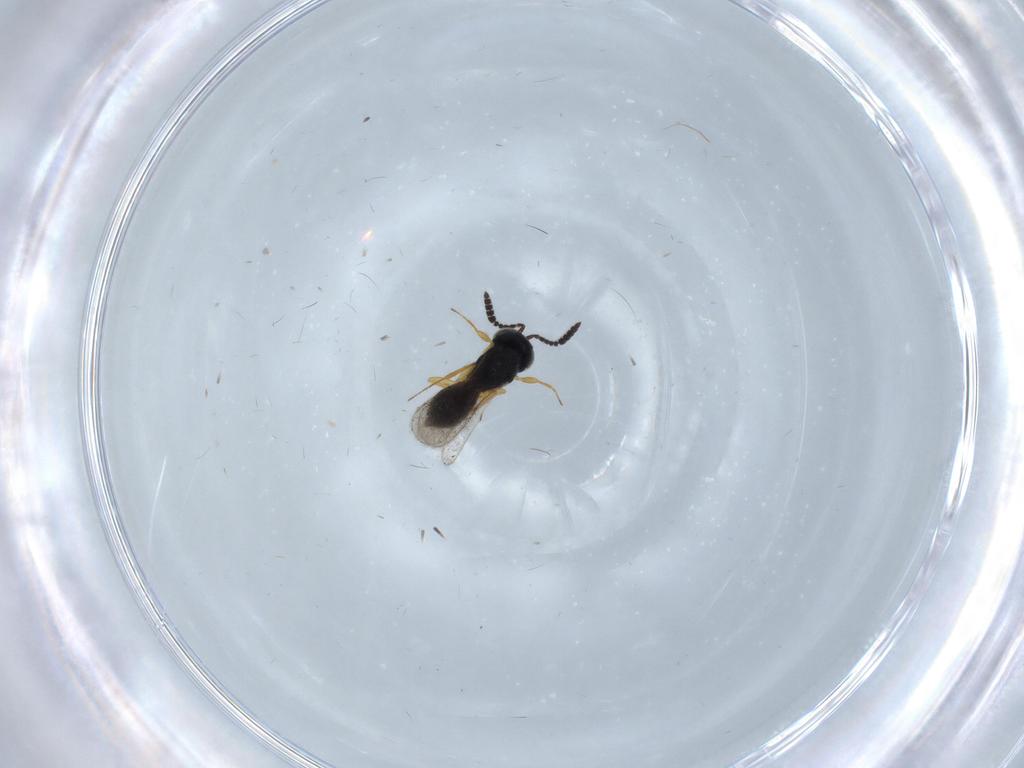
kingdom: Animalia
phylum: Arthropoda
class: Insecta
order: Hymenoptera
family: Scelionidae
